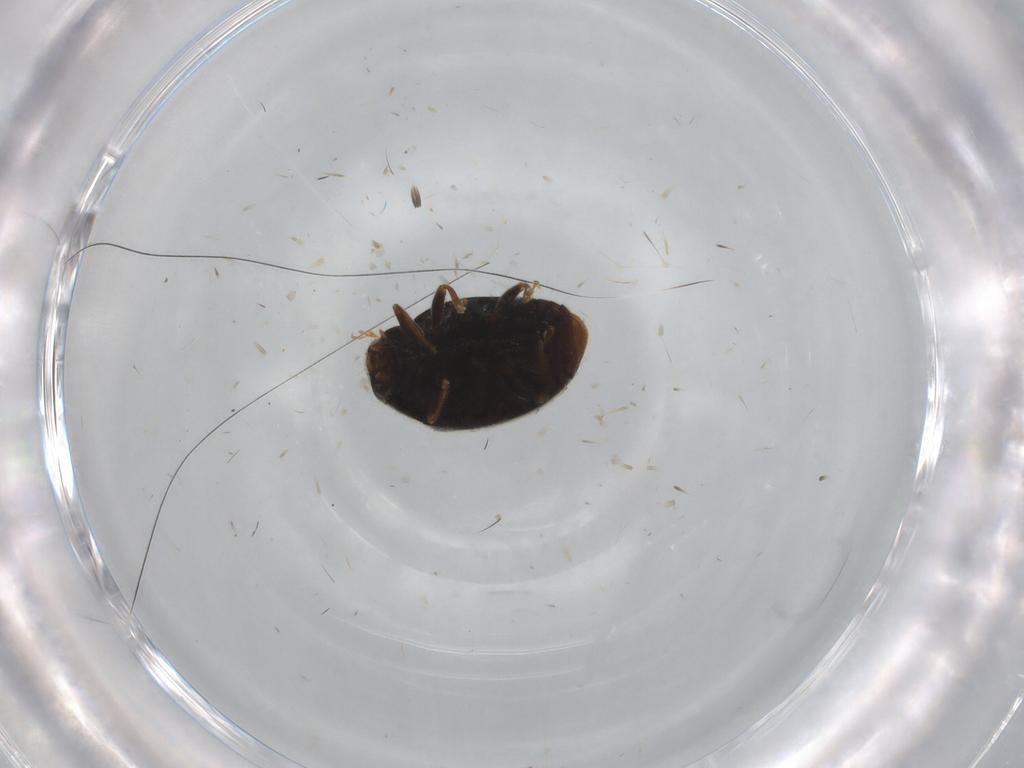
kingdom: Animalia
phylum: Arthropoda
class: Insecta
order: Coleoptera
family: Coccinellidae
